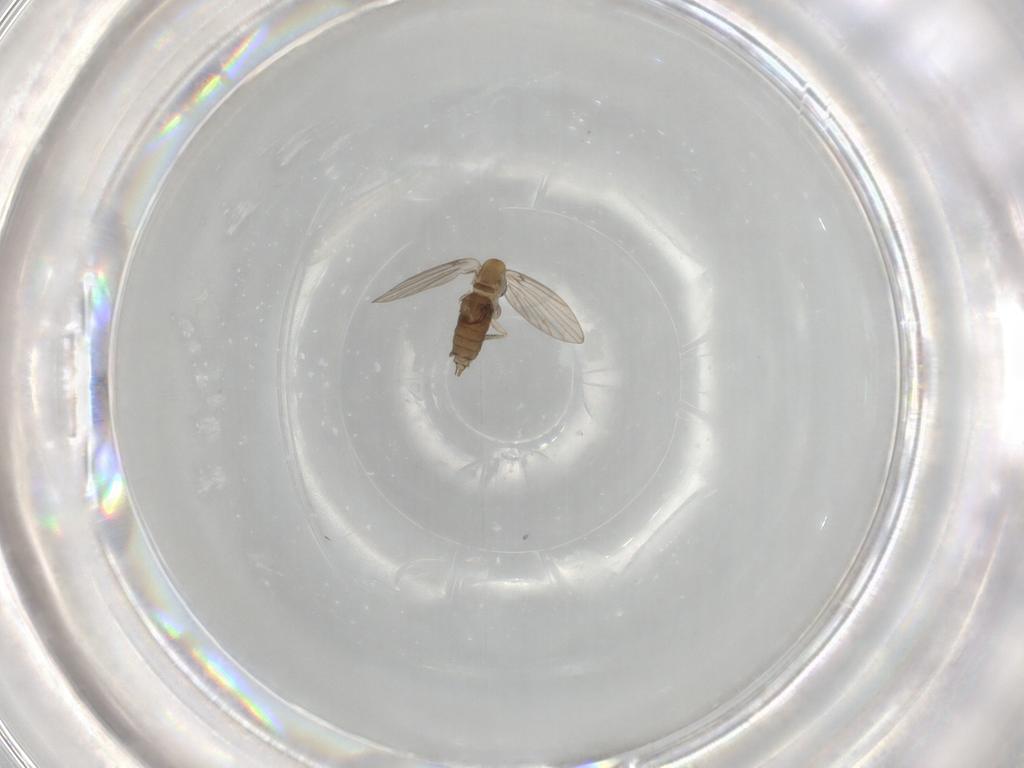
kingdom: Animalia
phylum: Arthropoda
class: Insecta
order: Diptera
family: Psychodidae
